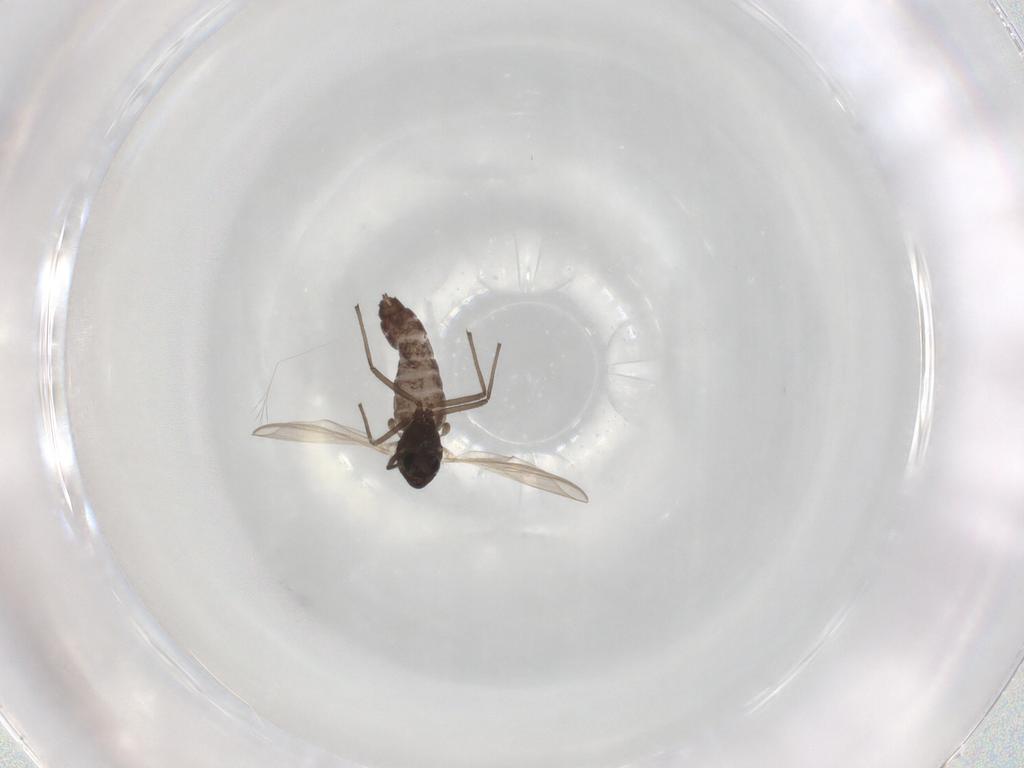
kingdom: Animalia
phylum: Arthropoda
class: Insecta
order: Diptera
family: Chironomidae
